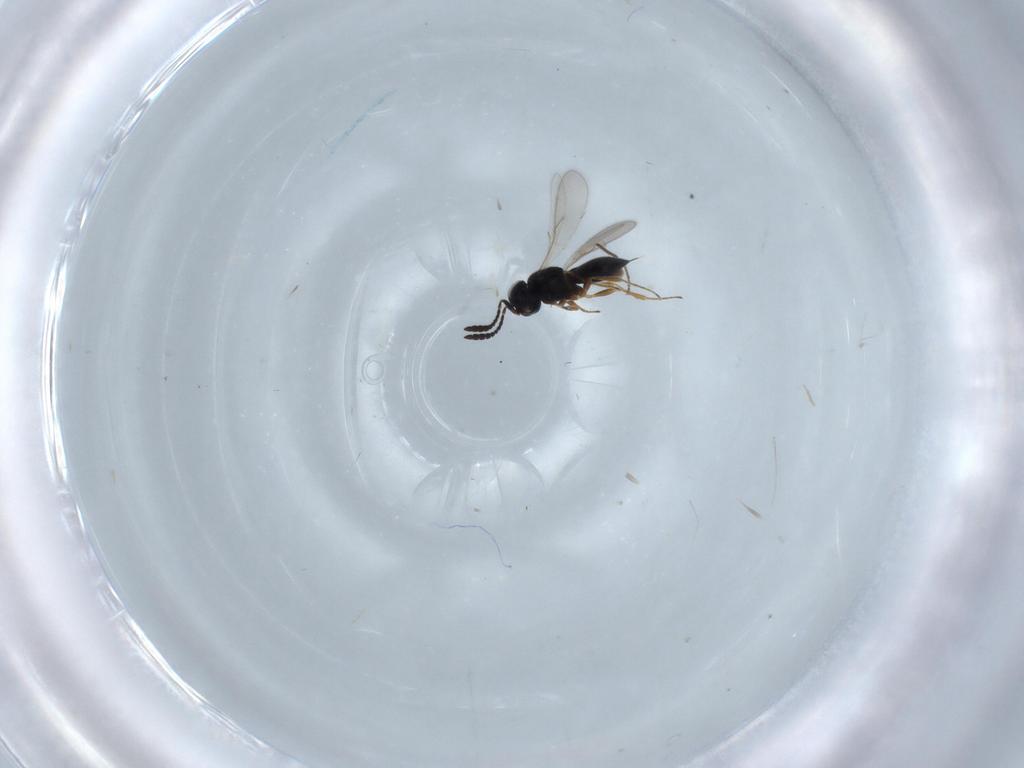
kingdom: Animalia
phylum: Arthropoda
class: Insecta
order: Hymenoptera
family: Scelionidae
